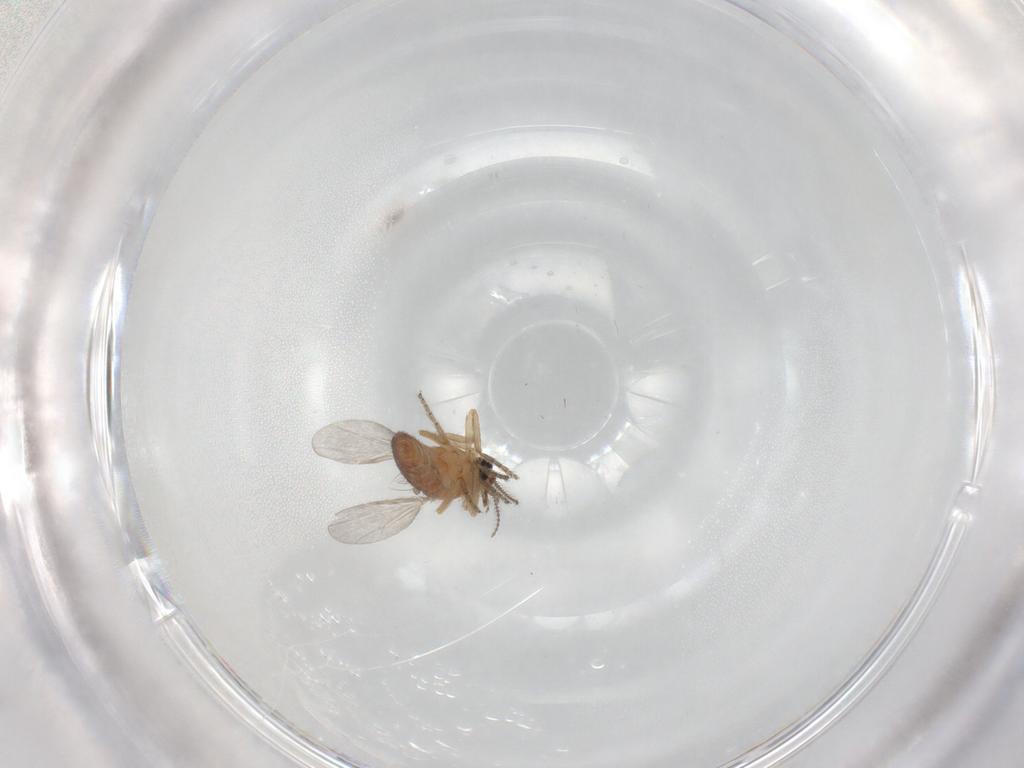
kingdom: Animalia
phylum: Arthropoda
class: Insecta
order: Diptera
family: Ceratopogonidae
